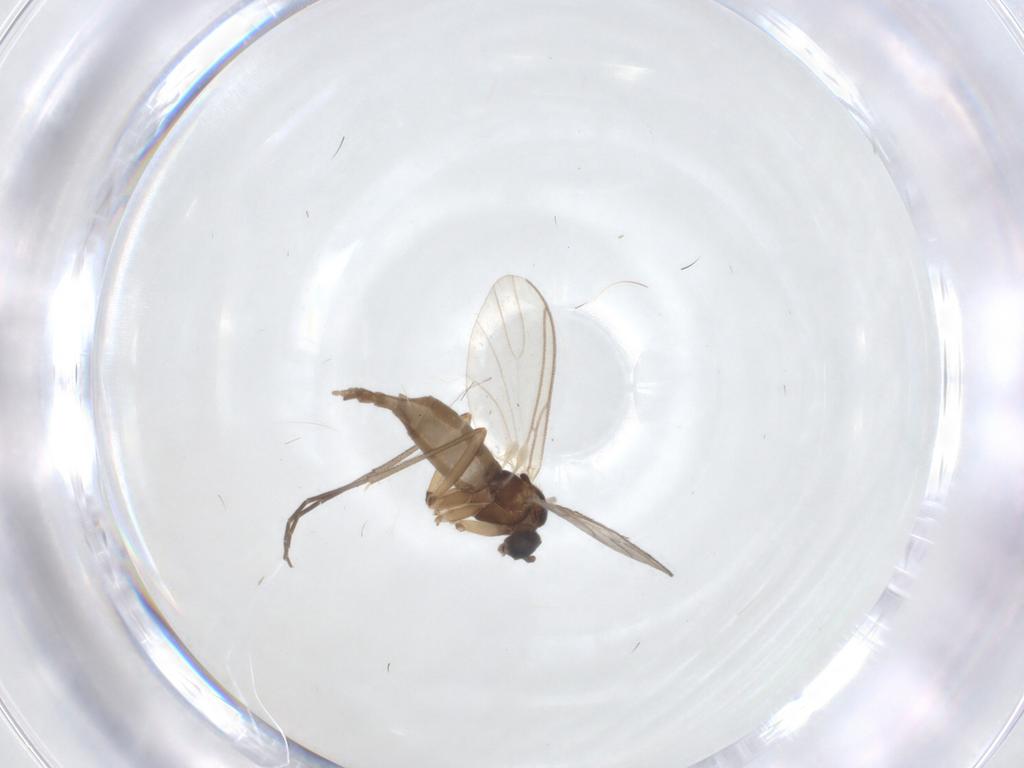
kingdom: Animalia
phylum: Arthropoda
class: Insecta
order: Diptera
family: Sciaridae
